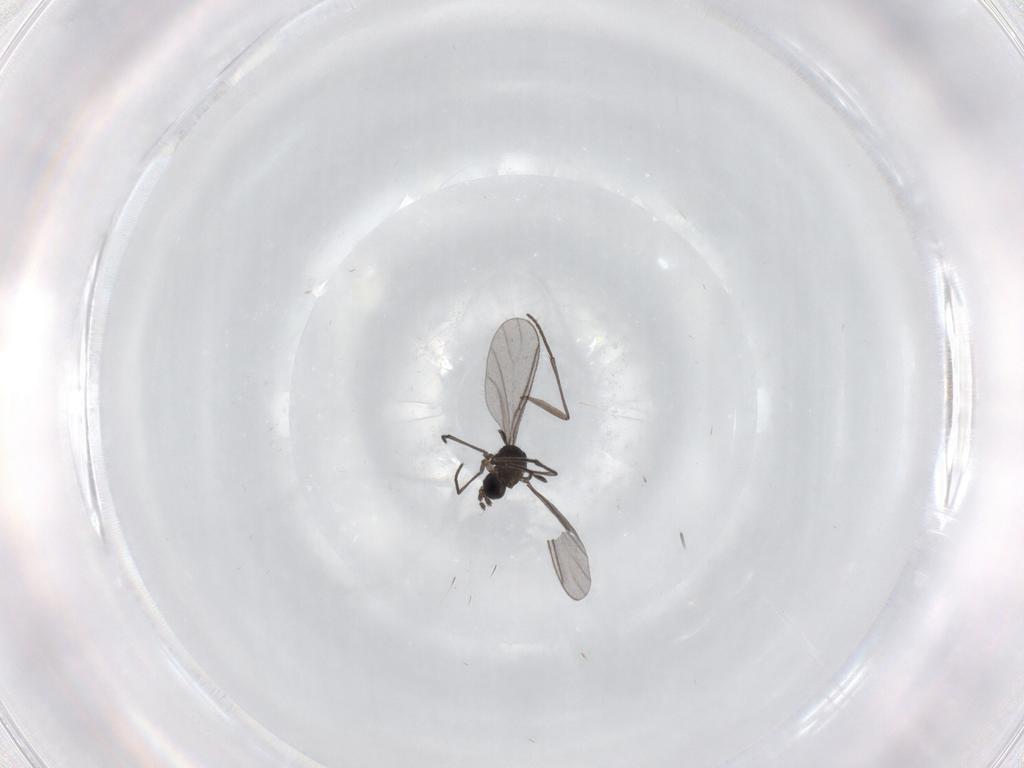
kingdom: Animalia
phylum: Arthropoda
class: Insecta
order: Diptera
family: Chironomidae
